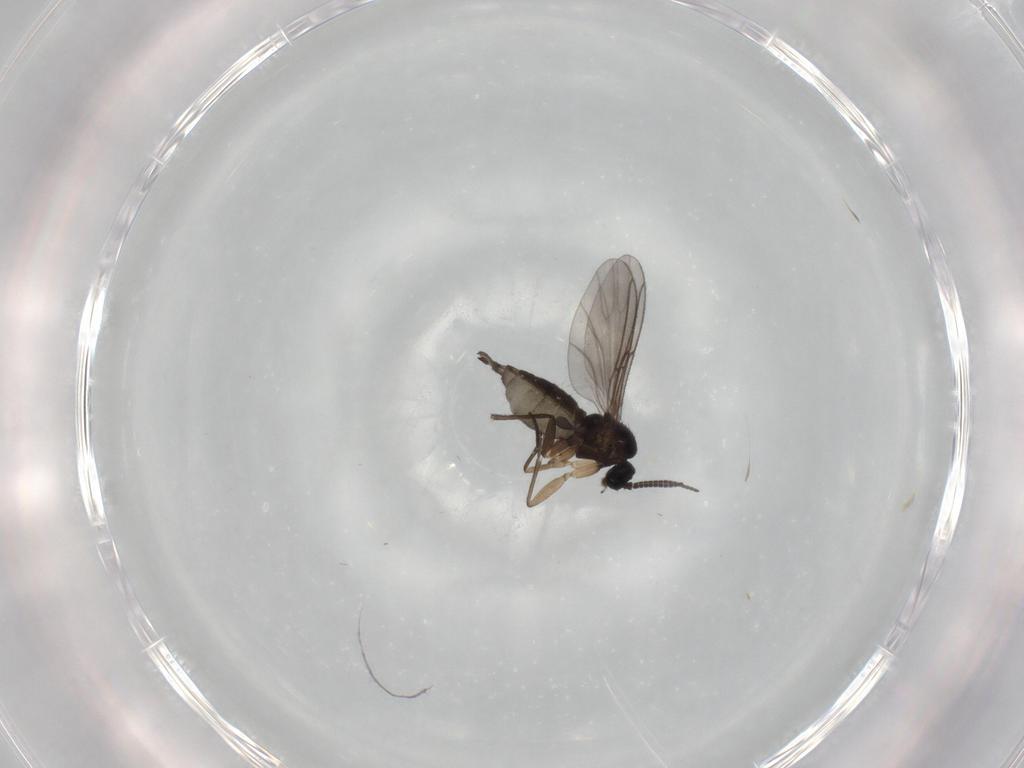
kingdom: Animalia
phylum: Arthropoda
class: Insecta
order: Diptera
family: Sciaridae
